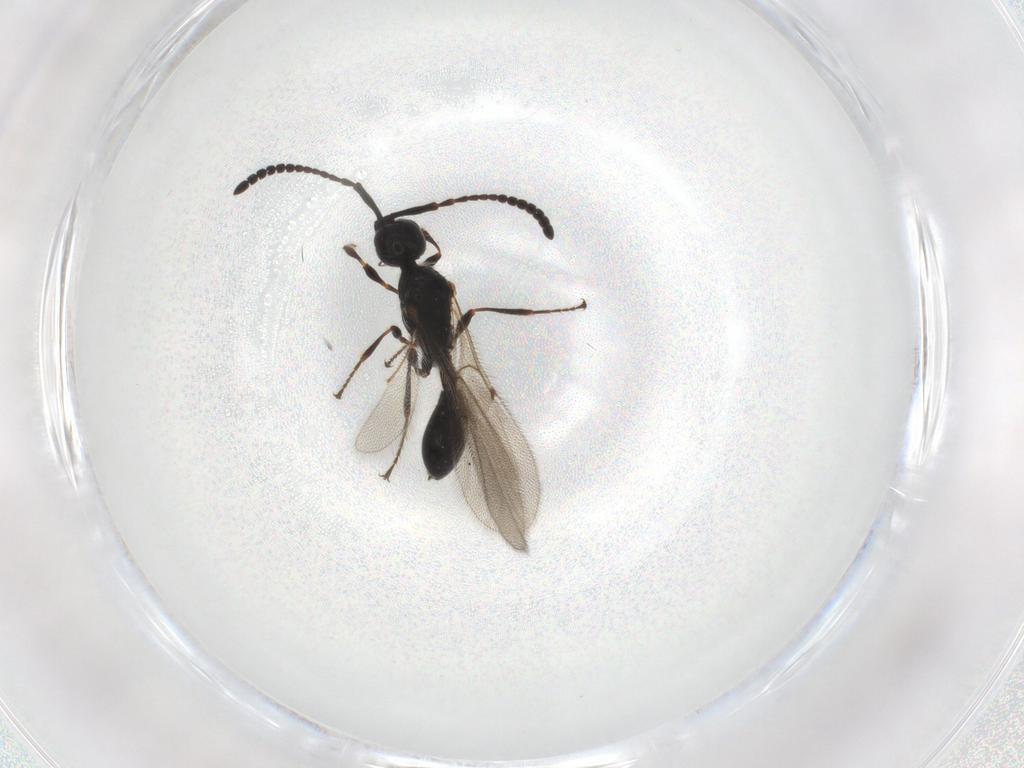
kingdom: Animalia
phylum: Arthropoda
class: Insecta
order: Hymenoptera
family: Diapriidae
